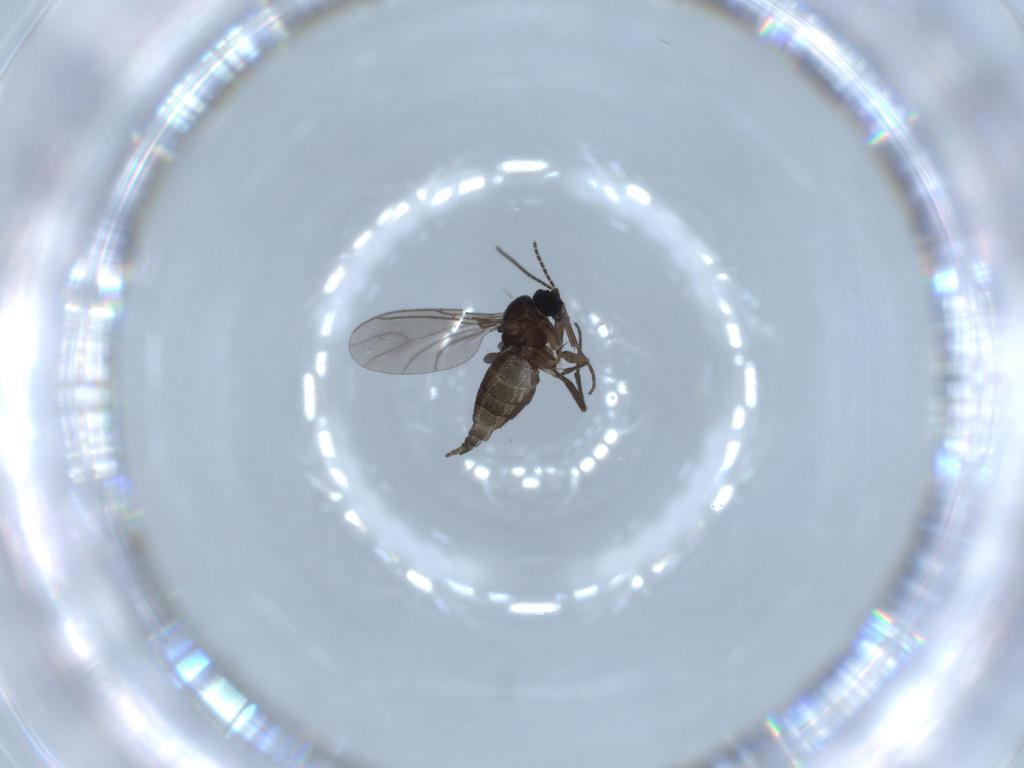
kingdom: Animalia
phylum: Arthropoda
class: Insecta
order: Diptera
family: Sciaridae
